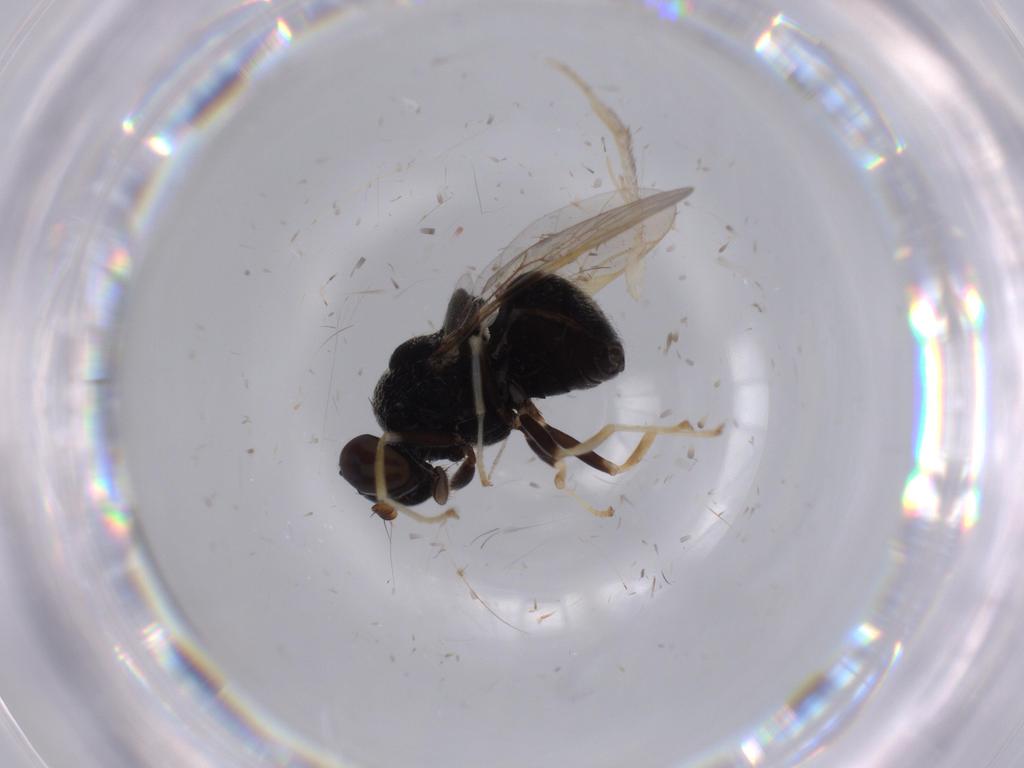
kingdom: Animalia
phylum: Arthropoda
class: Insecta
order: Diptera
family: Stratiomyidae
